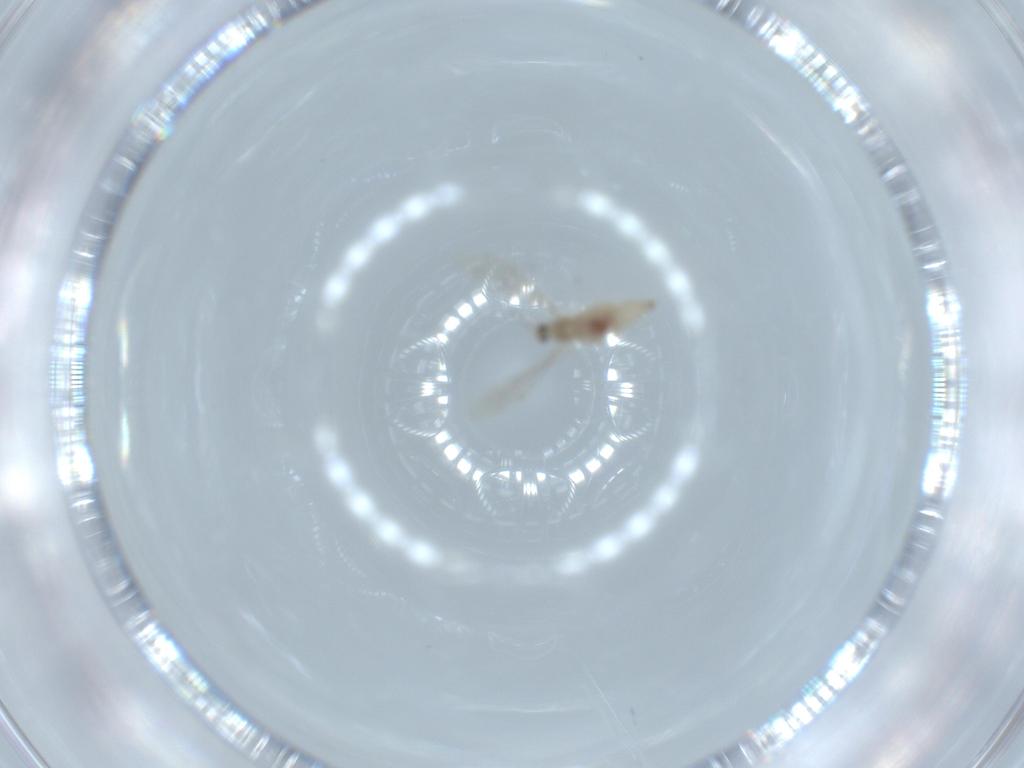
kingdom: Animalia
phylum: Arthropoda
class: Insecta
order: Diptera
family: Cecidomyiidae
